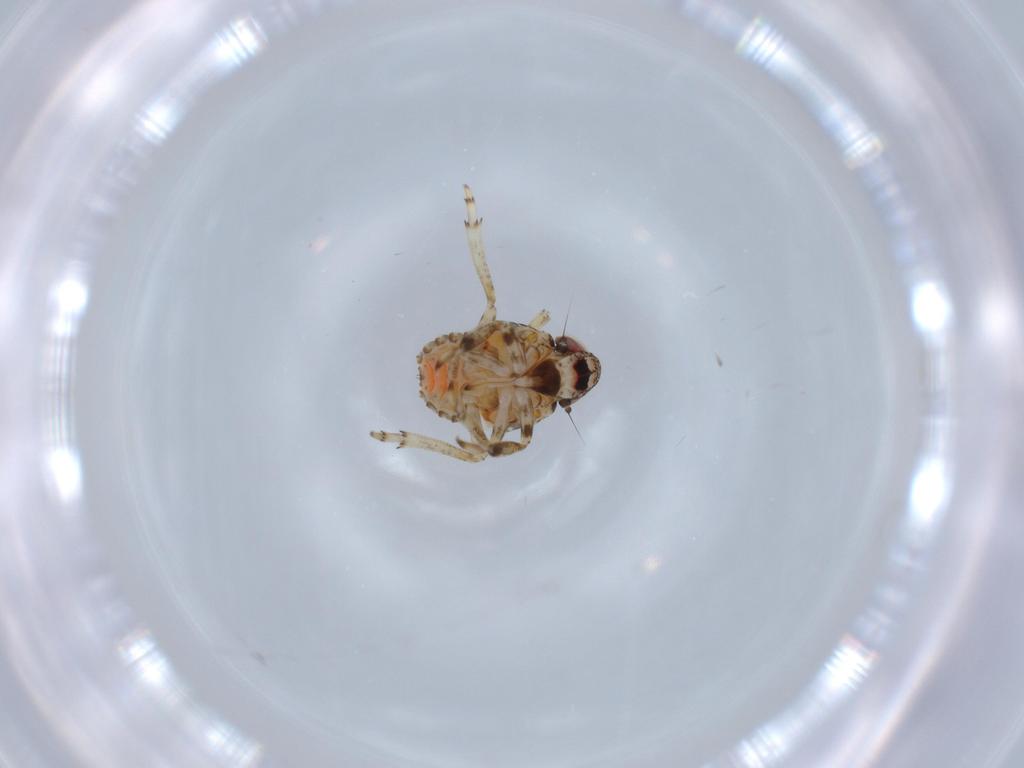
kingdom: Animalia
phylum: Arthropoda
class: Insecta
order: Hemiptera
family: Issidae
